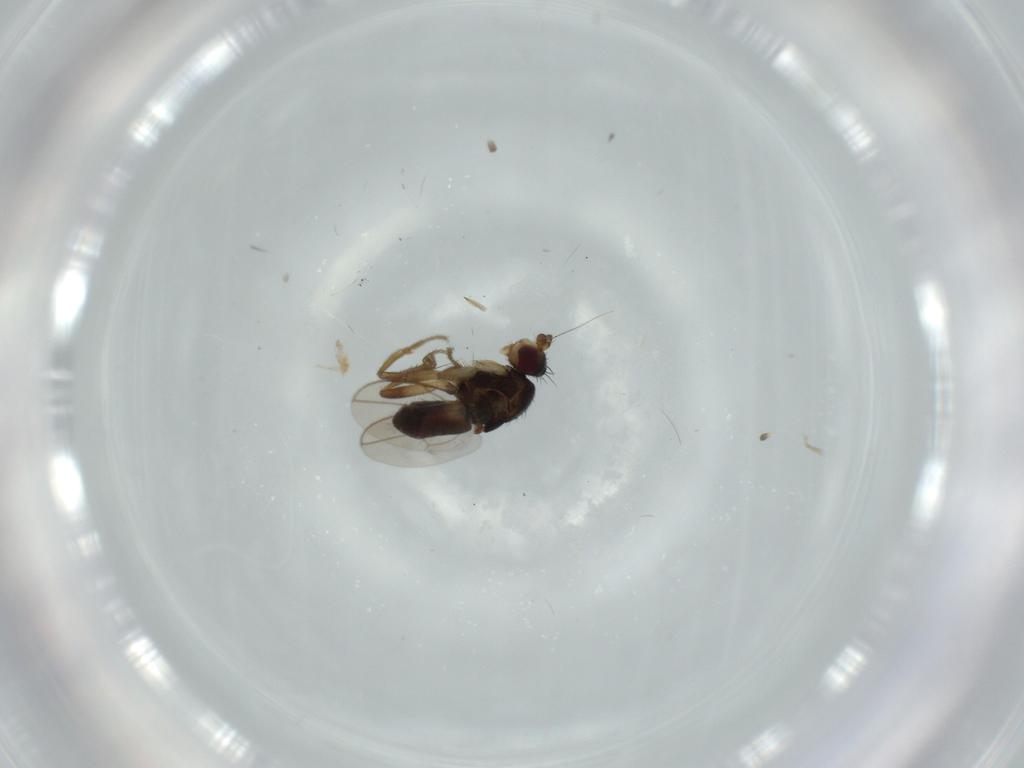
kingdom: Animalia
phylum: Arthropoda
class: Insecta
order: Diptera
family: Sciaridae
